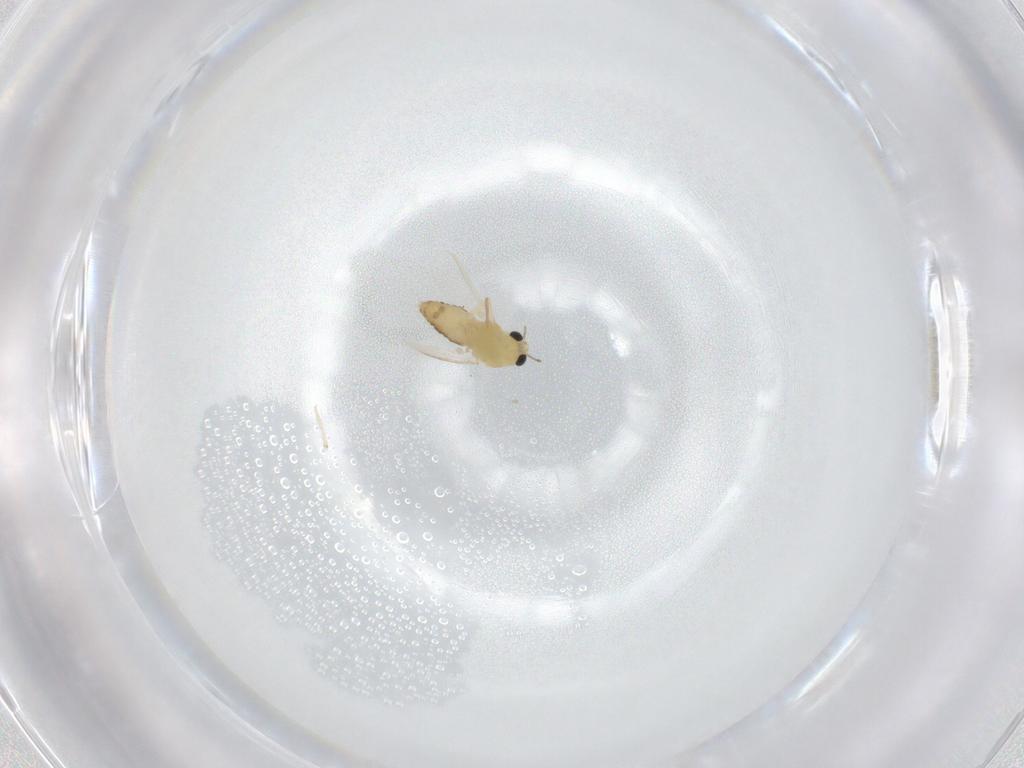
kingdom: Animalia
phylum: Arthropoda
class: Insecta
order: Diptera
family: Chironomidae
